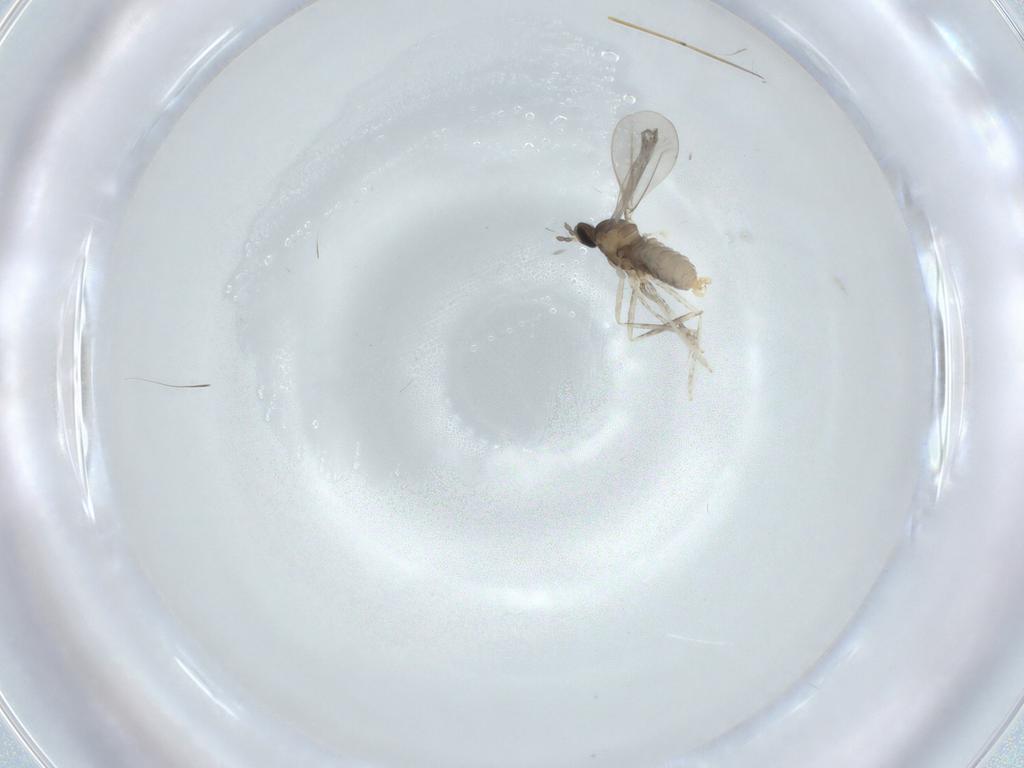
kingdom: Animalia
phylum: Arthropoda
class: Insecta
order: Diptera
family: Cecidomyiidae
